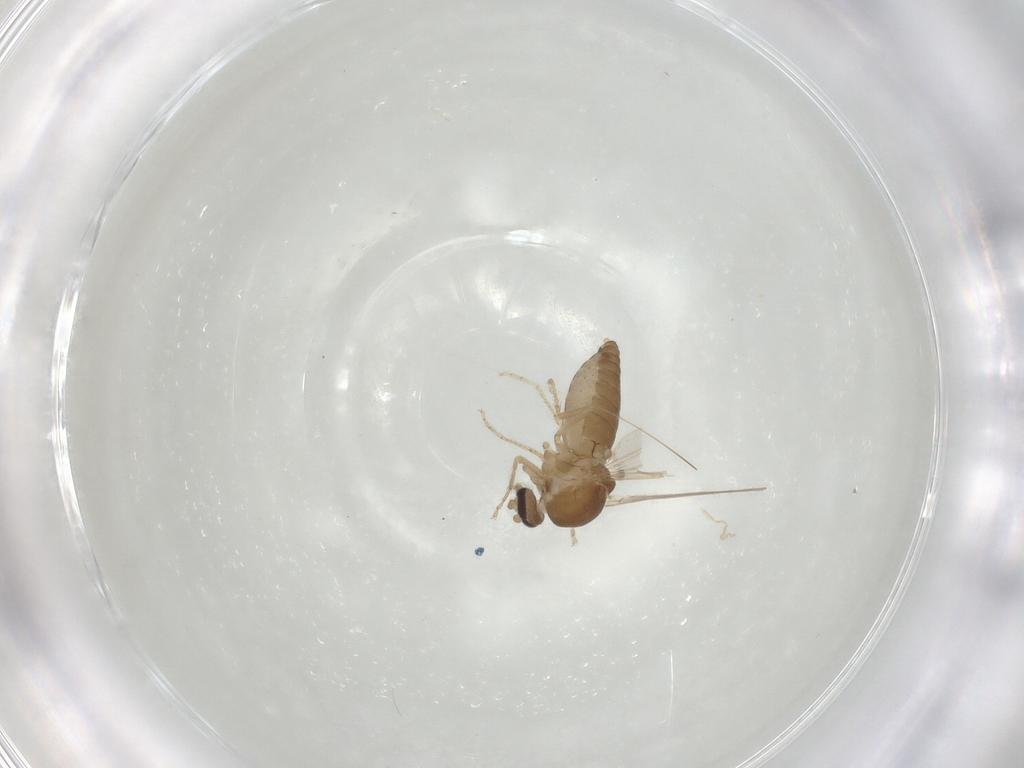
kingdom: Animalia
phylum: Arthropoda
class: Insecta
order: Diptera
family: Ceratopogonidae
